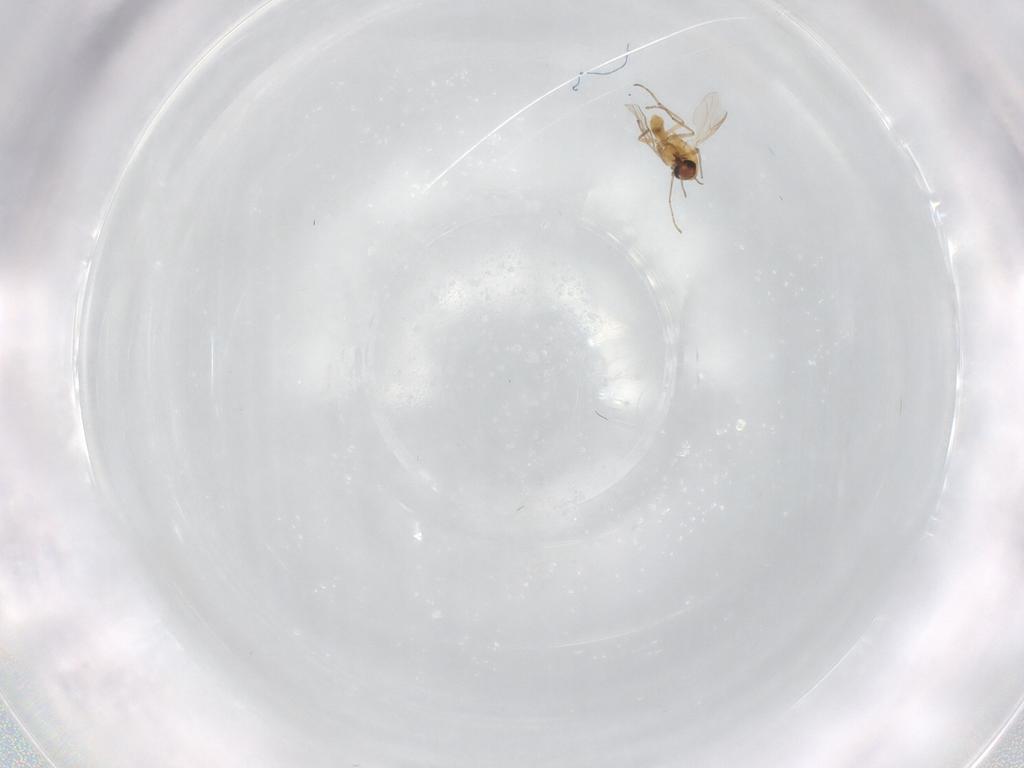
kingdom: Animalia
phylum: Arthropoda
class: Insecta
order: Diptera
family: Chironomidae
